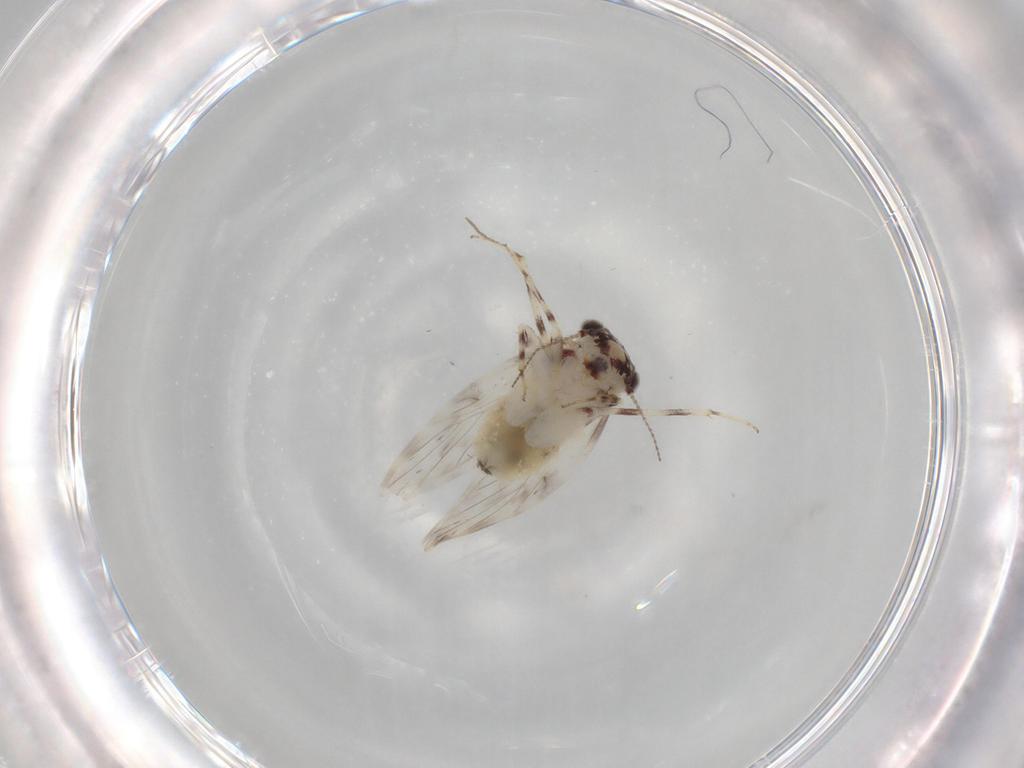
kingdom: Animalia
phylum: Arthropoda
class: Insecta
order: Psocodea
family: Lepidopsocidae
